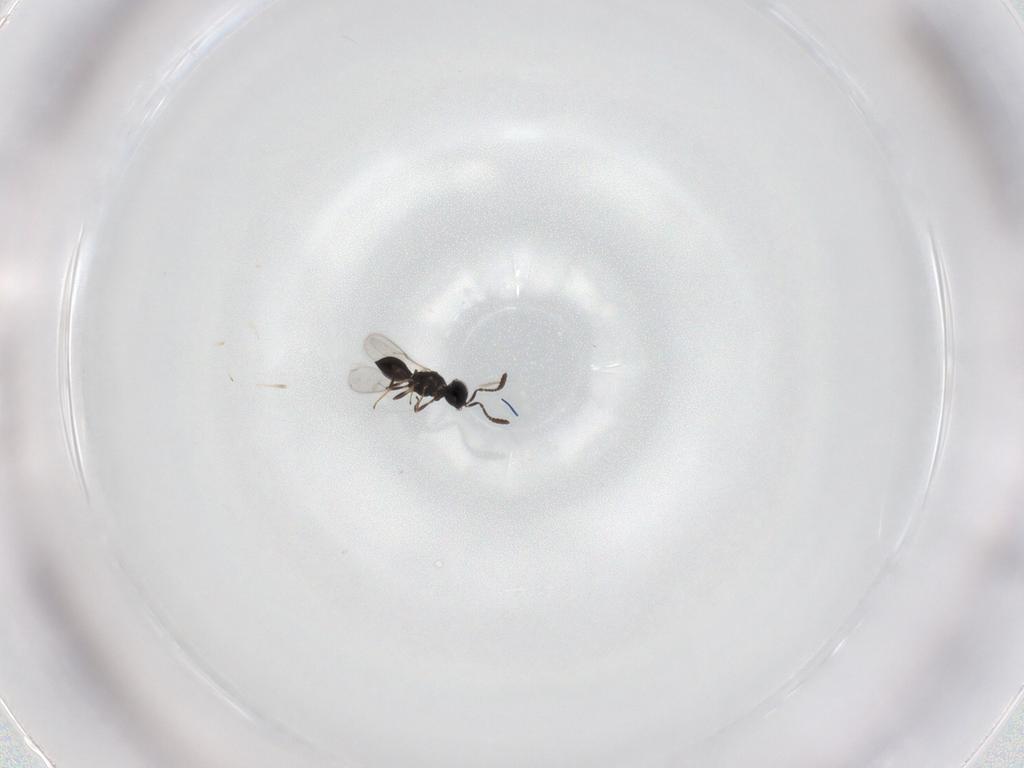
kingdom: Animalia
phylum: Arthropoda
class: Insecta
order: Hymenoptera
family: Scelionidae
